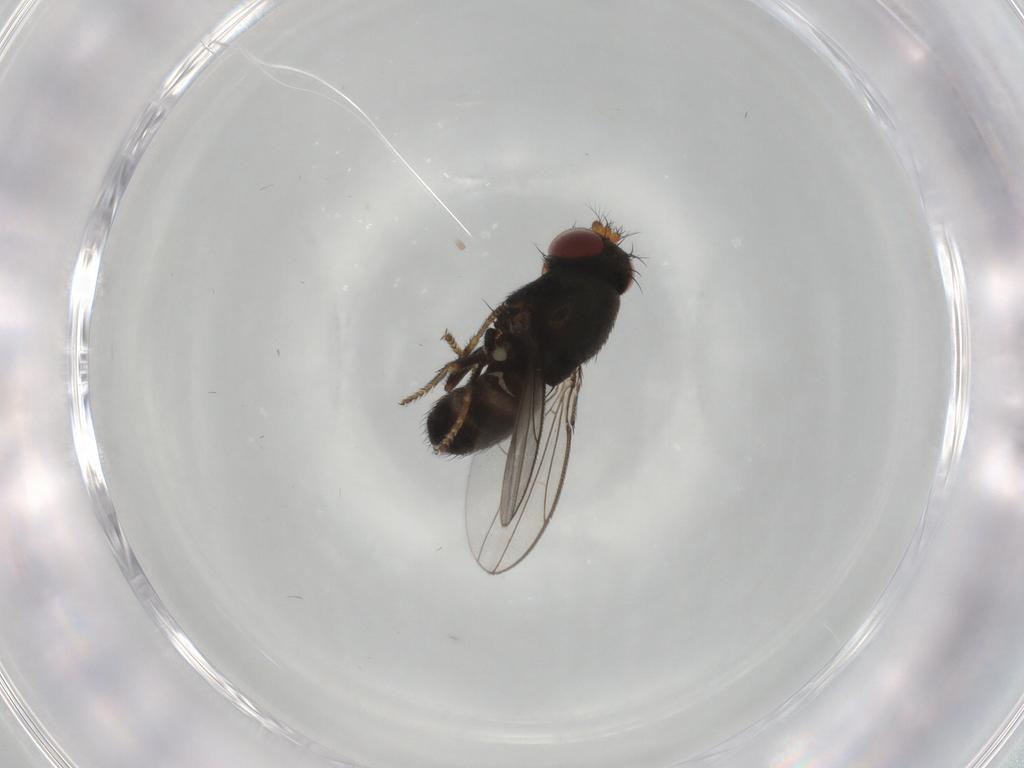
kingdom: Animalia
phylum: Arthropoda
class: Insecta
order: Diptera
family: Ephydridae
